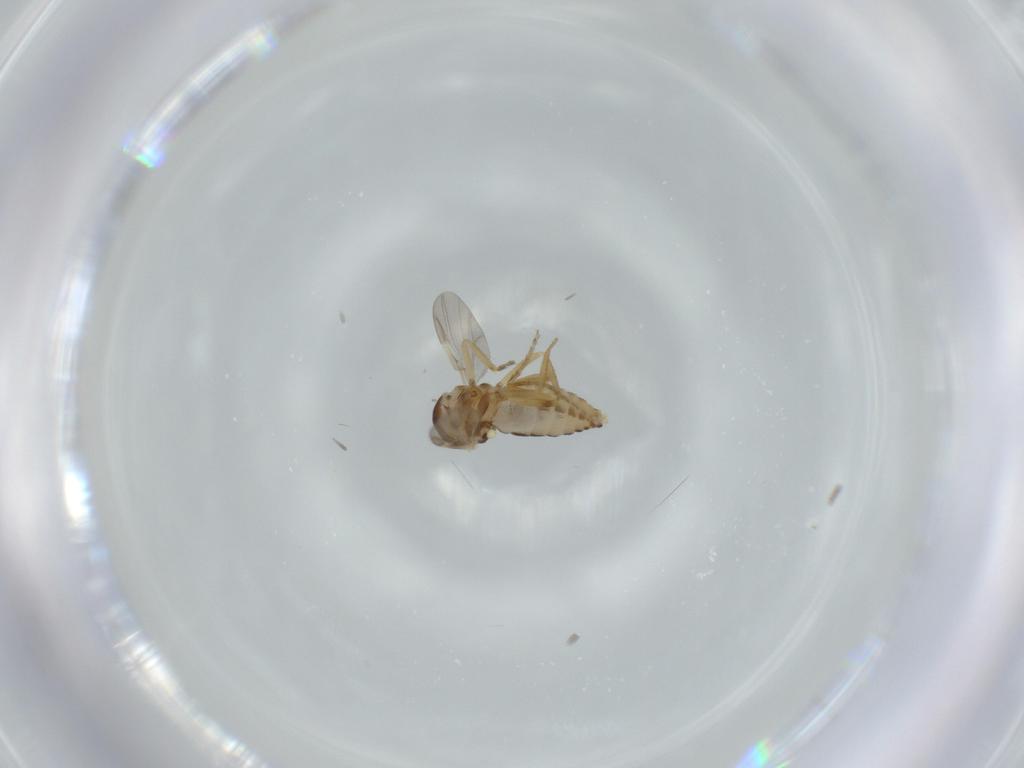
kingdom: Animalia
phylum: Arthropoda
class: Insecta
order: Diptera
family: Ceratopogonidae
